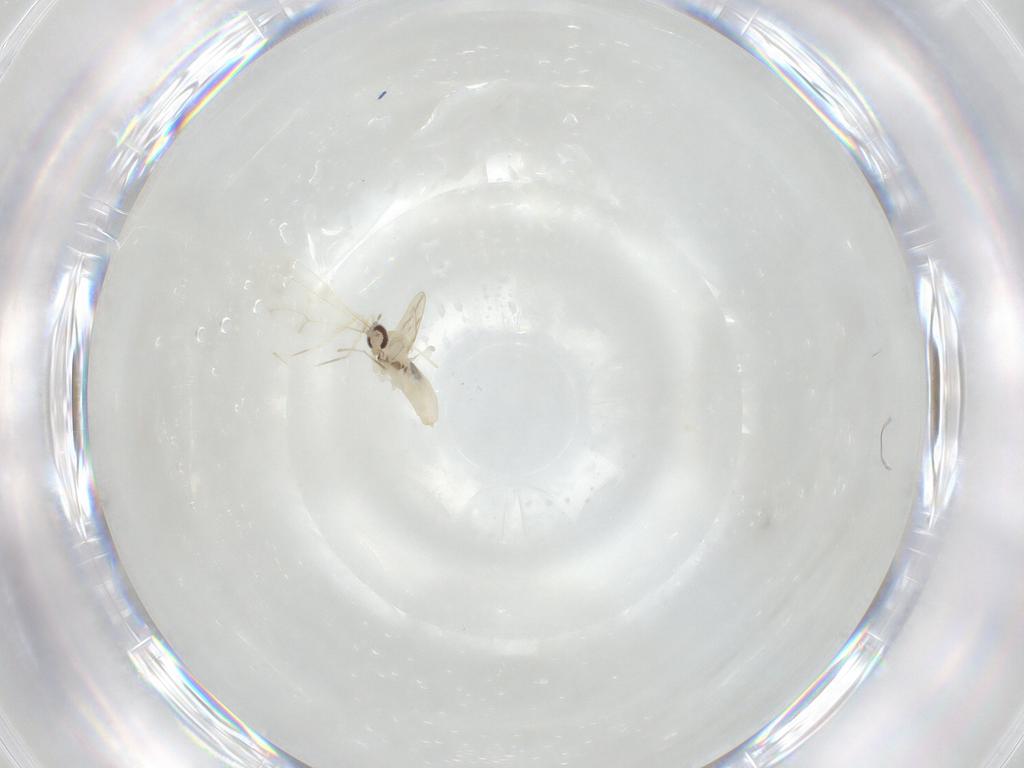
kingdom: Animalia
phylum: Arthropoda
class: Insecta
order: Diptera
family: Cecidomyiidae
